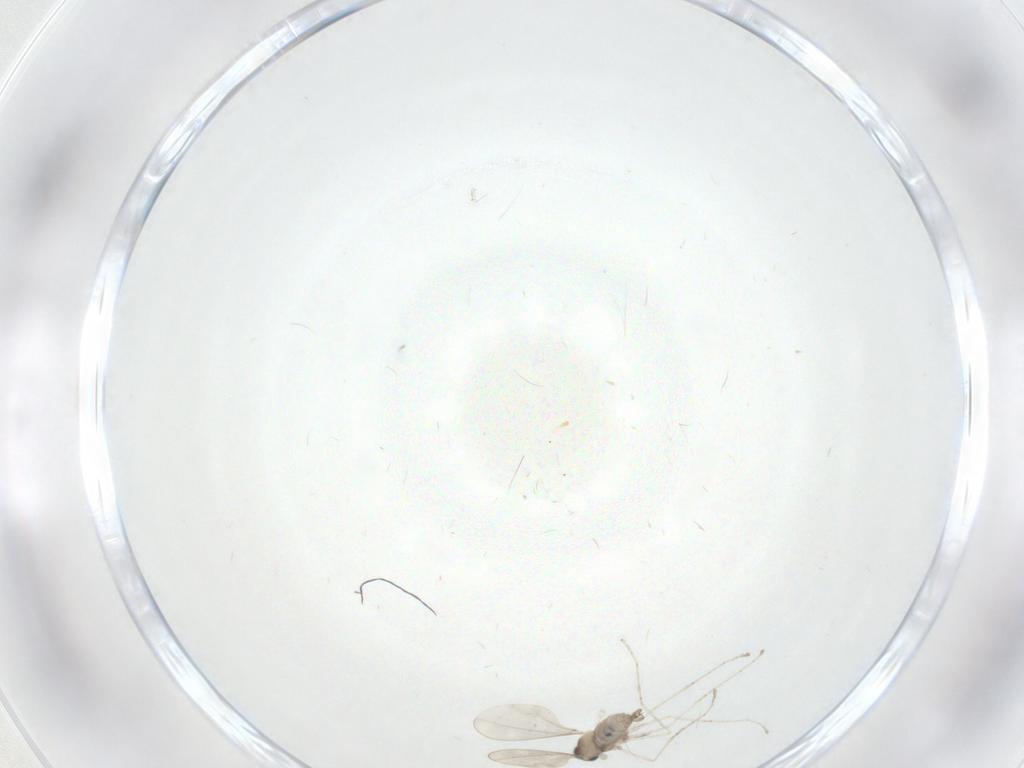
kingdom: Animalia
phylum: Arthropoda
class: Insecta
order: Diptera
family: Cecidomyiidae
